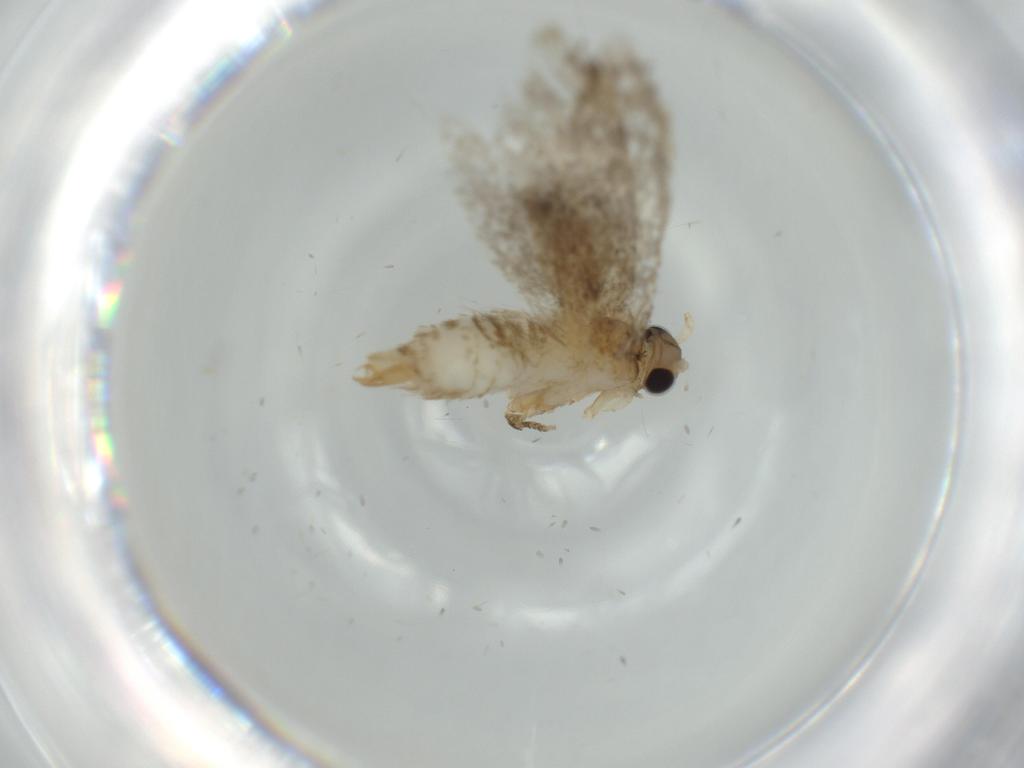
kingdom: Animalia
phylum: Arthropoda
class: Insecta
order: Lepidoptera
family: Tineidae
